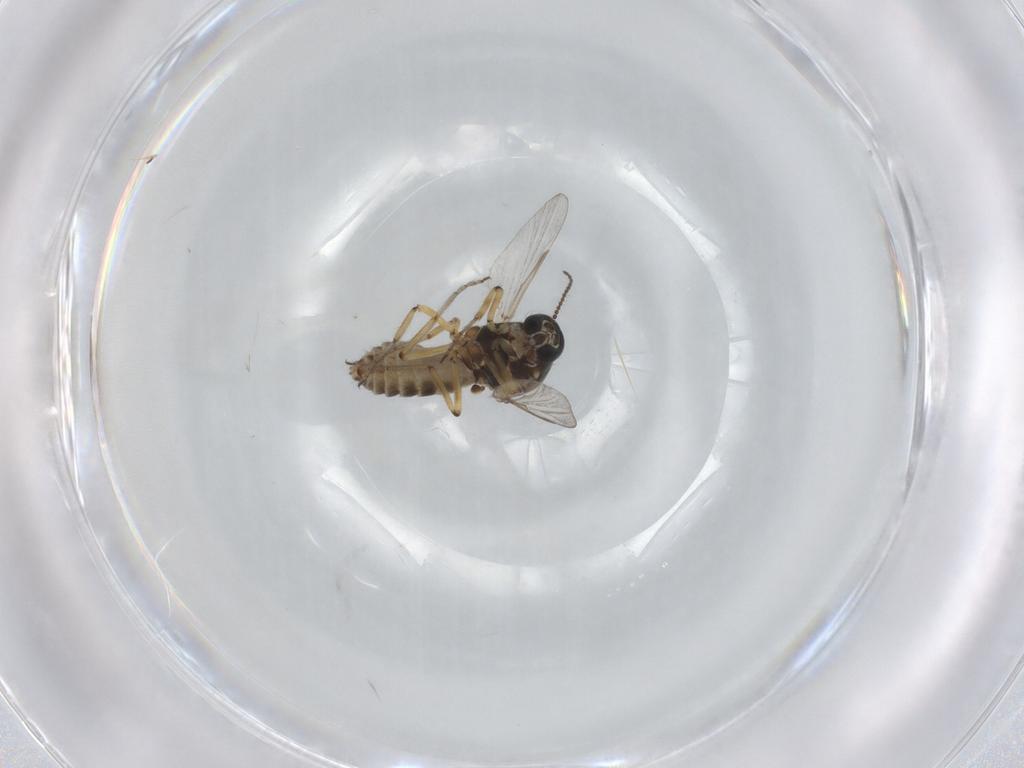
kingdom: Animalia
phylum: Arthropoda
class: Insecta
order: Diptera
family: Ceratopogonidae
